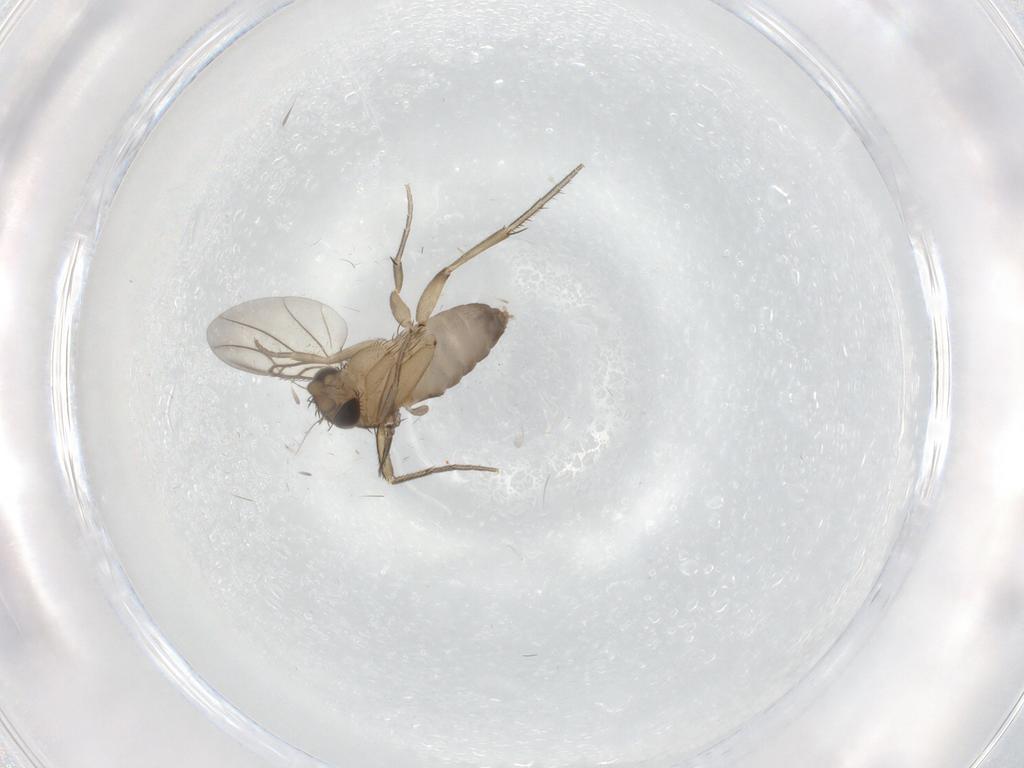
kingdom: Animalia
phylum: Arthropoda
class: Insecta
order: Diptera
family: Phoridae
